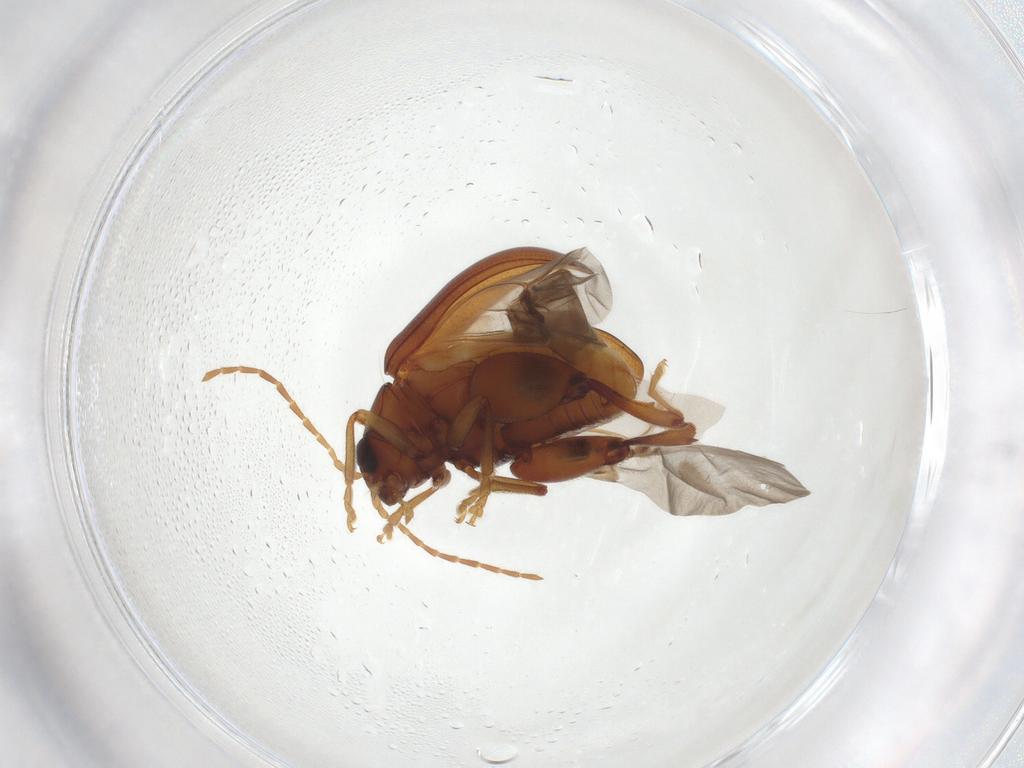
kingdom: Animalia
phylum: Arthropoda
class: Insecta
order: Coleoptera
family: Chrysomelidae
